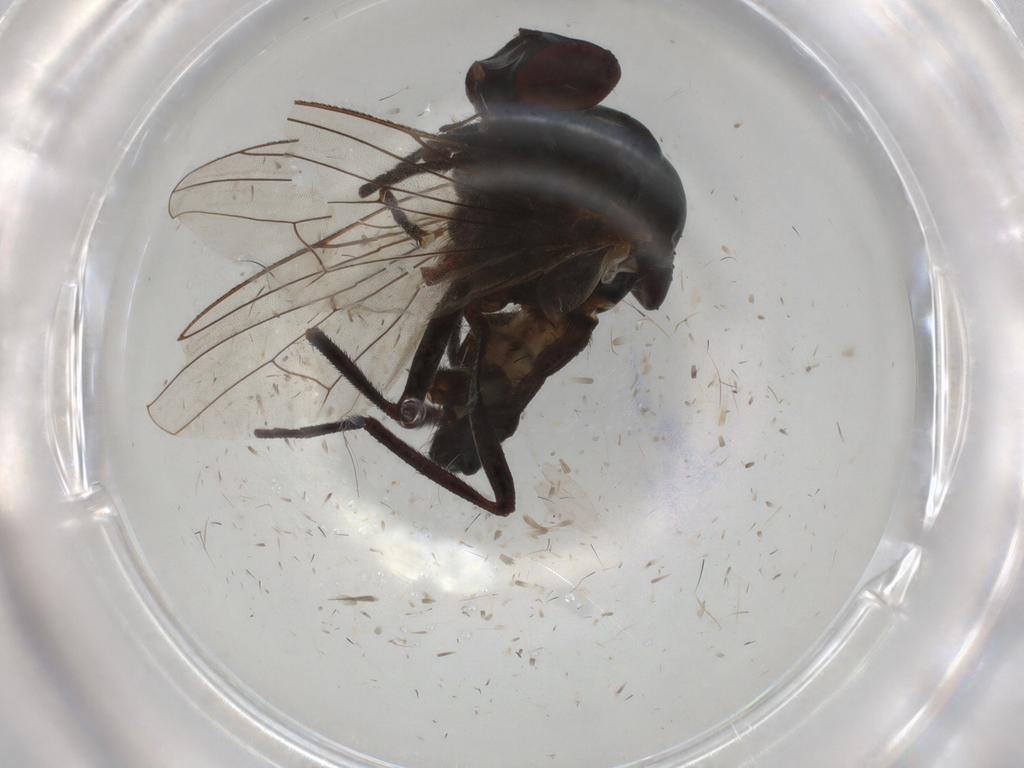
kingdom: Animalia
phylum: Arthropoda
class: Insecta
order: Diptera
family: Anthomyiidae
